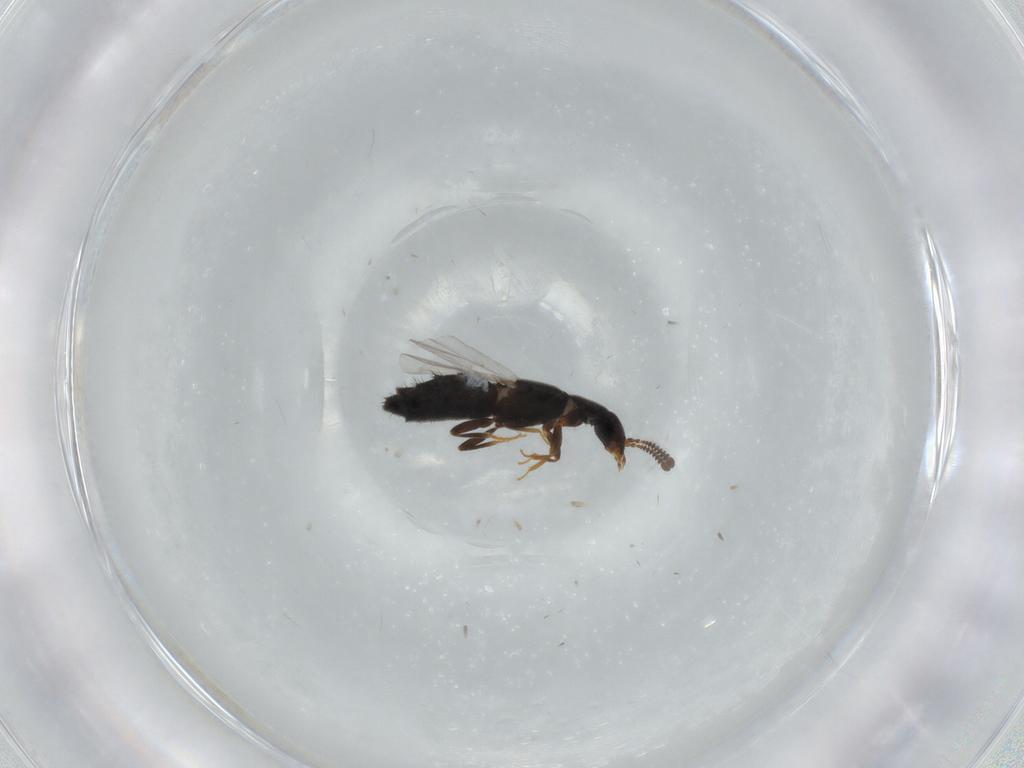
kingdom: Animalia
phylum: Arthropoda
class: Insecta
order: Coleoptera
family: Staphylinidae
